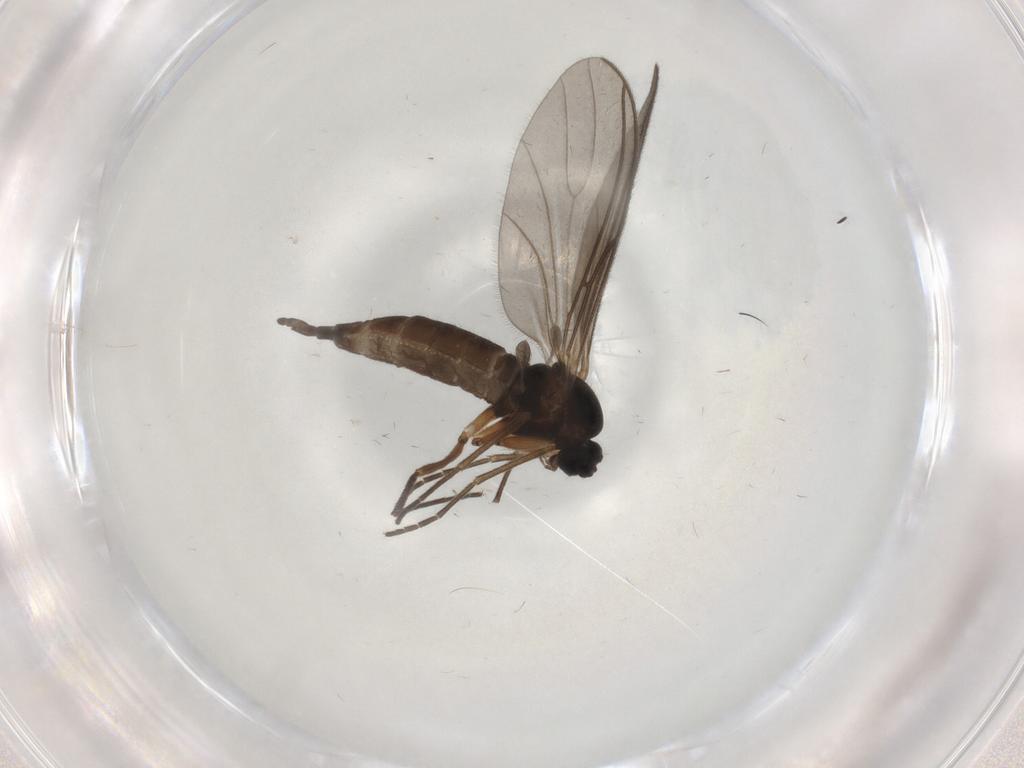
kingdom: Animalia
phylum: Arthropoda
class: Insecta
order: Diptera
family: Sciaridae
